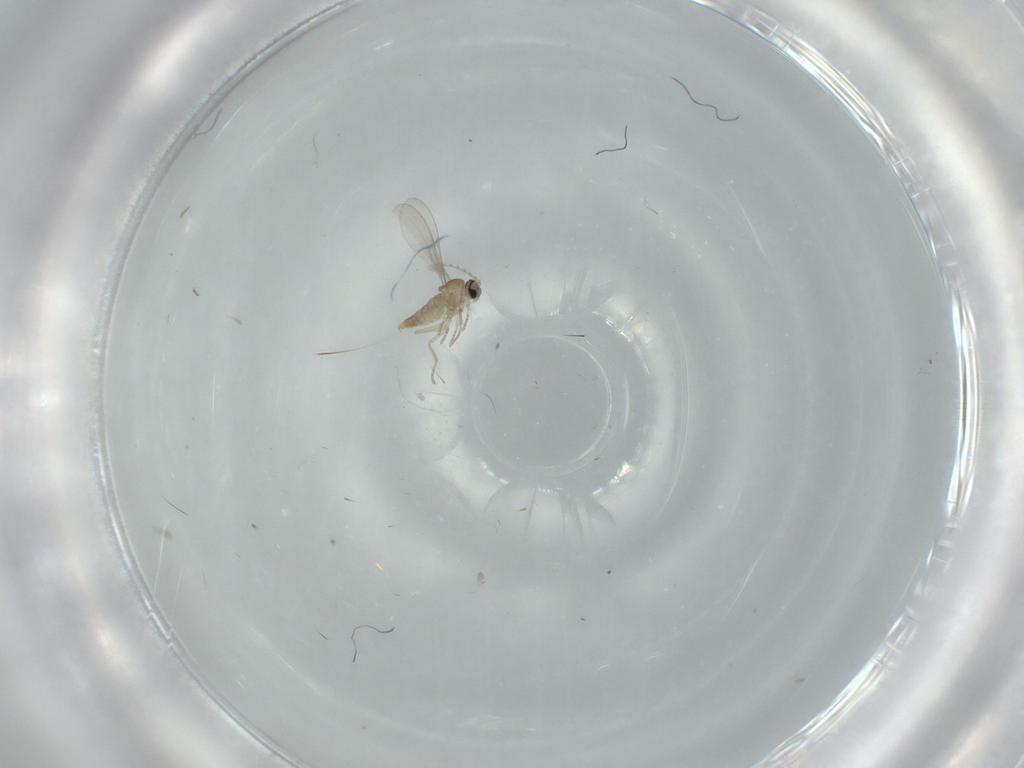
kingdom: Animalia
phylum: Arthropoda
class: Insecta
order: Diptera
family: Cecidomyiidae
